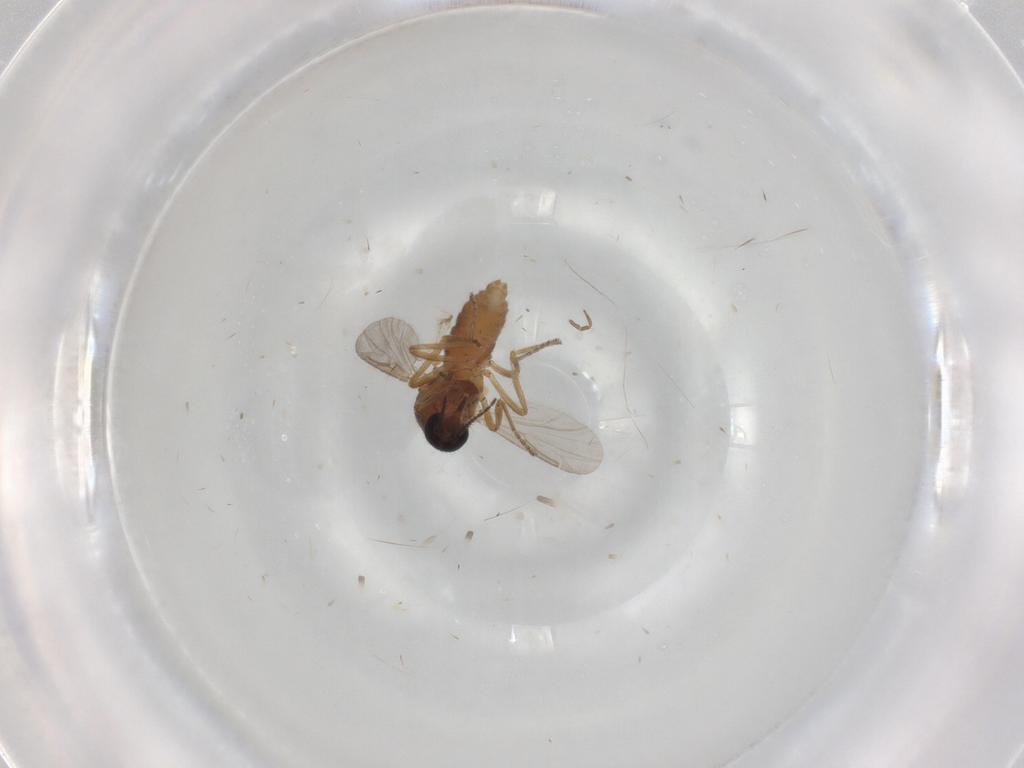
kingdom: Animalia
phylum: Arthropoda
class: Insecta
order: Diptera
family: Ceratopogonidae
